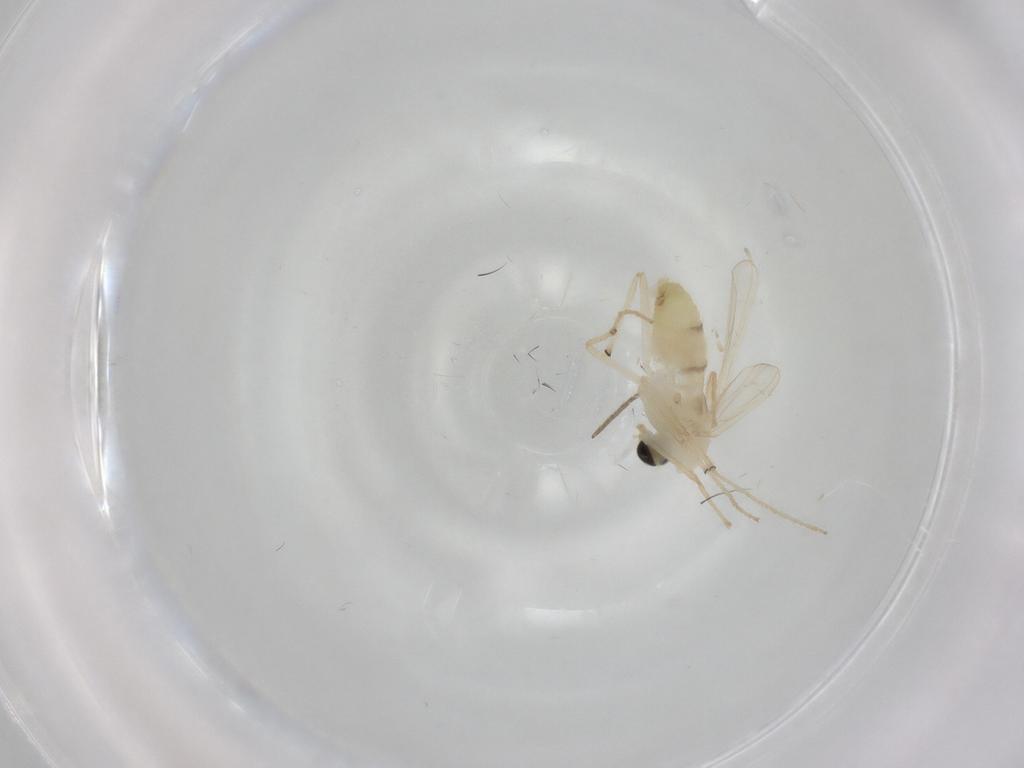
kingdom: Animalia
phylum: Arthropoda
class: Insecta
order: Diptera
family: Chironomidae
